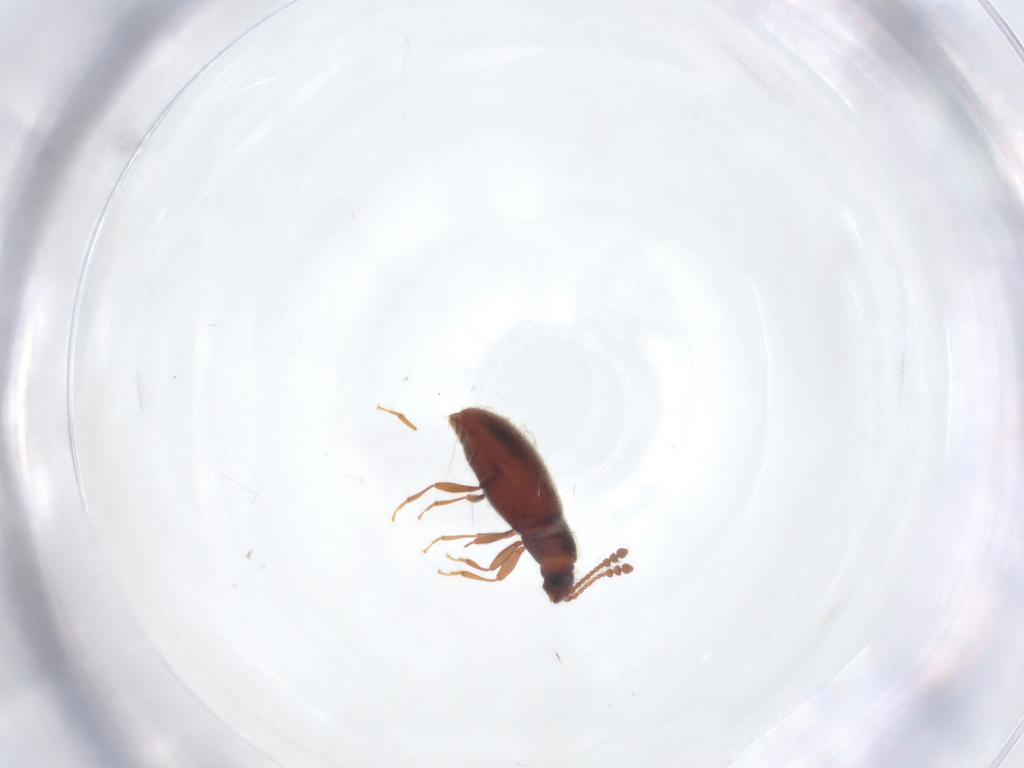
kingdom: Animalia
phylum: Arthropoda
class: Insecta
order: Coleoptera
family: Cryptophagidae
